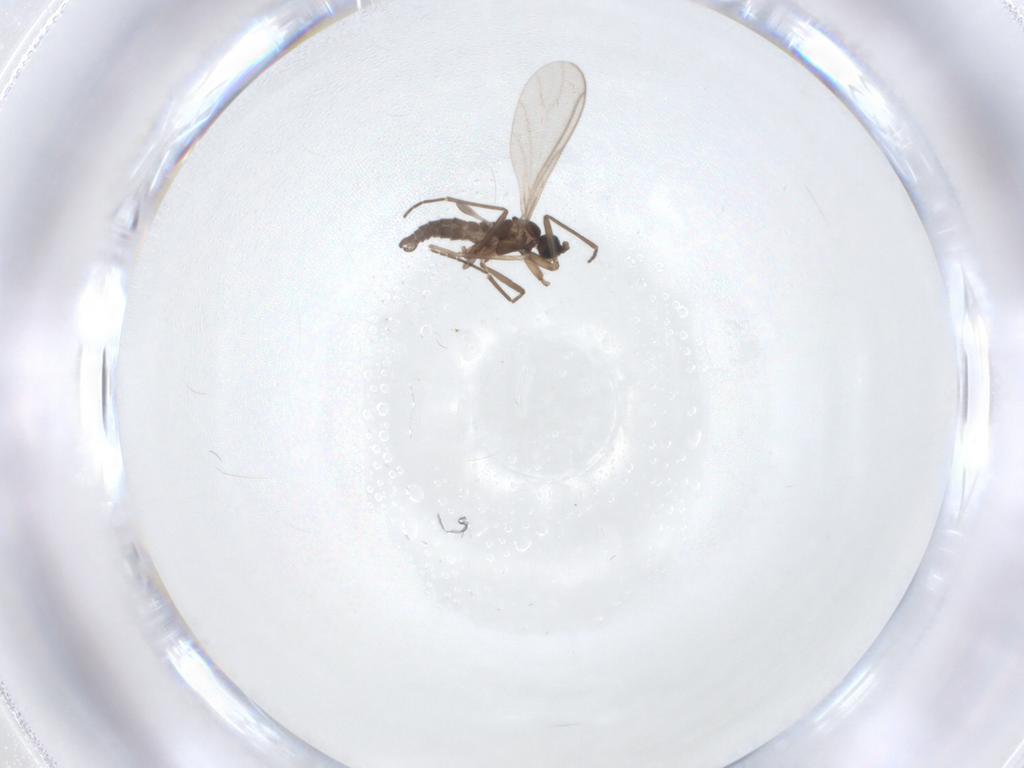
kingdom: Animalia
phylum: Arthropoda
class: Insecta
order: Diptera
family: Sciaridae
